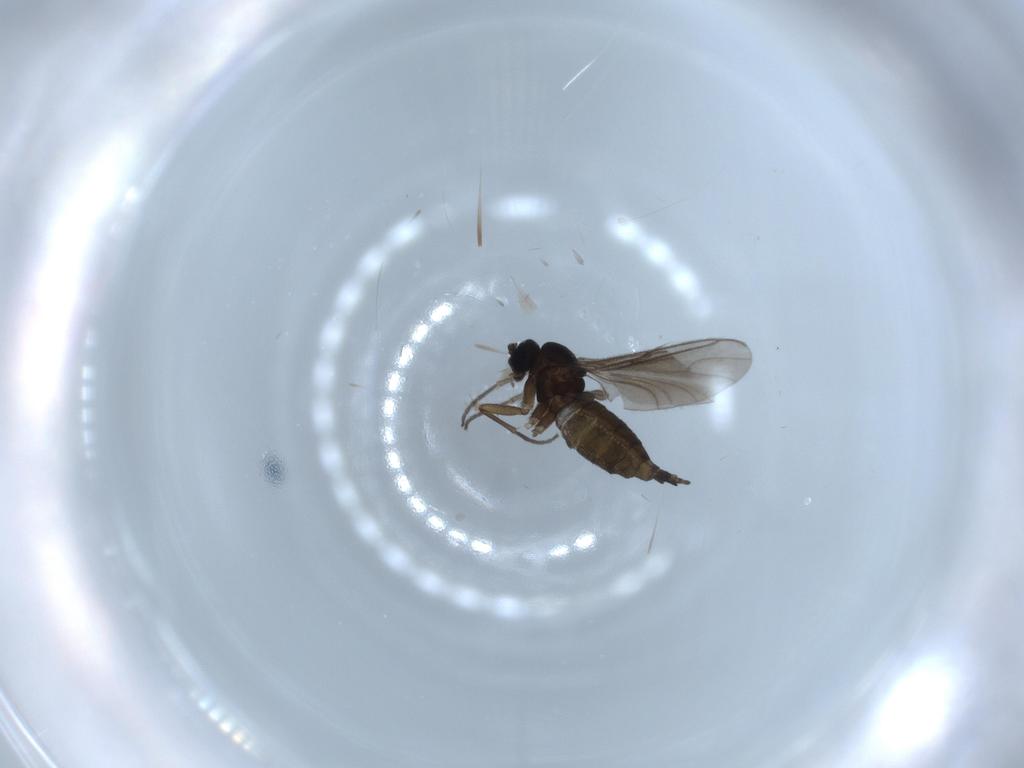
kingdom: Animalia
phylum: Arthropoda
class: Insecta
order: Diptera
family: Sciaridae
